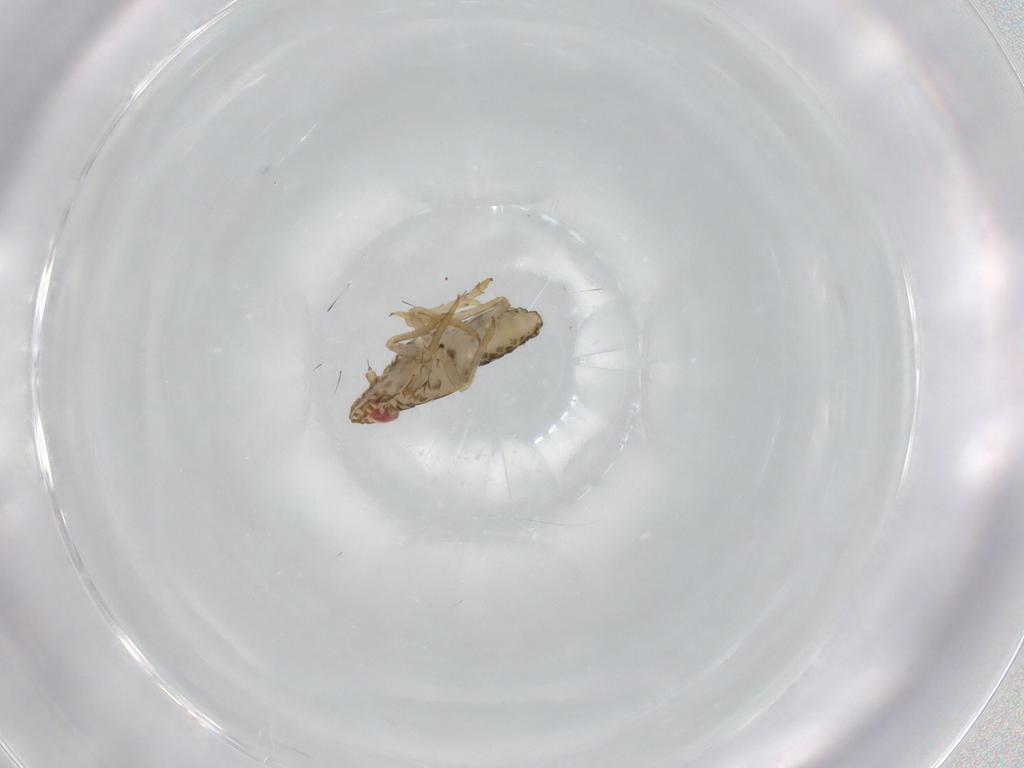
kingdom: Animalia
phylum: Arthropoda
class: Insecta
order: Hemiptera
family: Delphacidae
